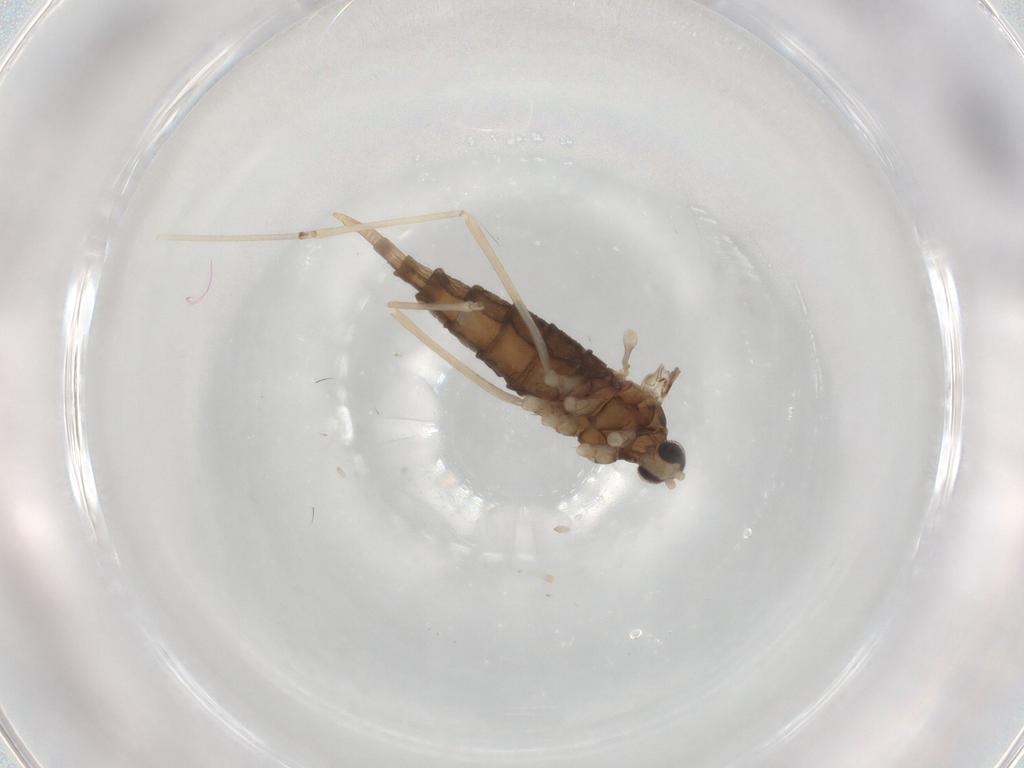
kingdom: Animalia
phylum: Arthropoda
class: Insecta
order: Diptera
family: Cecidomyiidae
